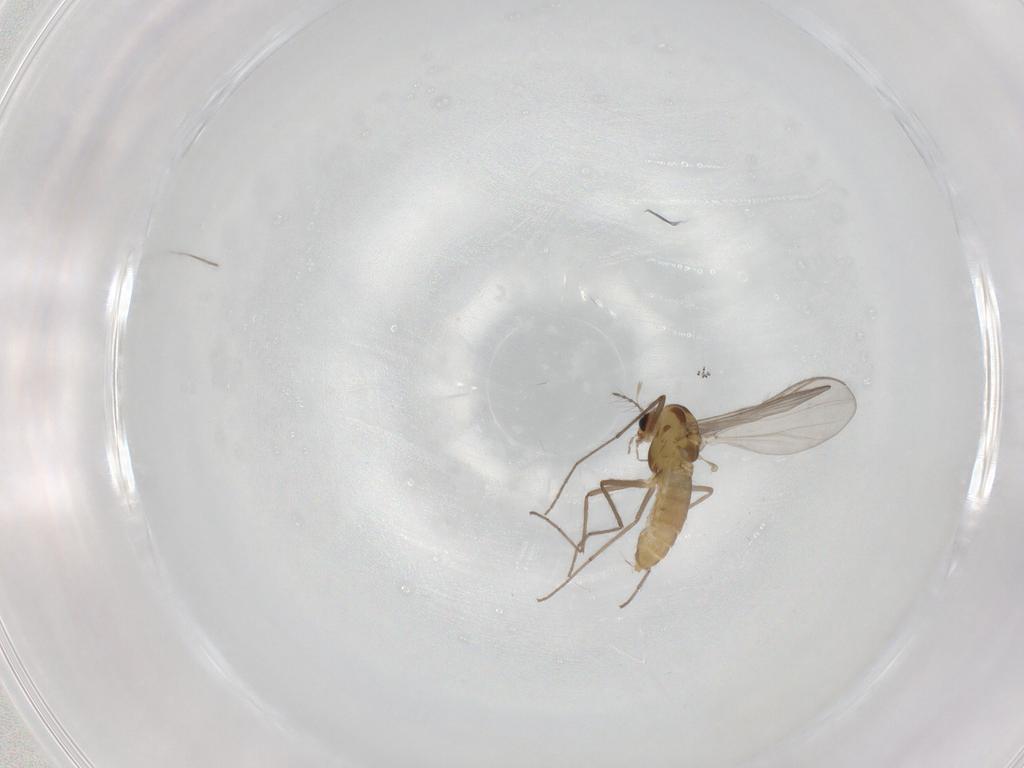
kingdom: Animalia
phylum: Arthropoda
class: Insecta
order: Diptera
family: Chironomidae
